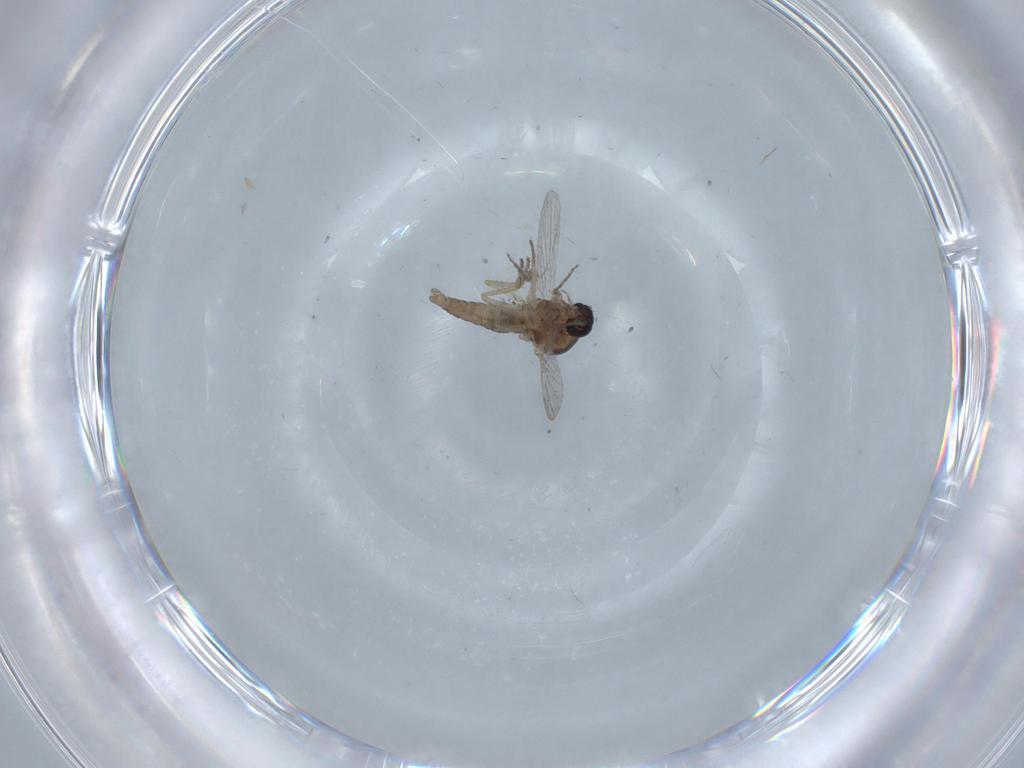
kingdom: Animalia
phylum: Arthropoda
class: Insecta
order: Diptera
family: Ceratopogonidae
